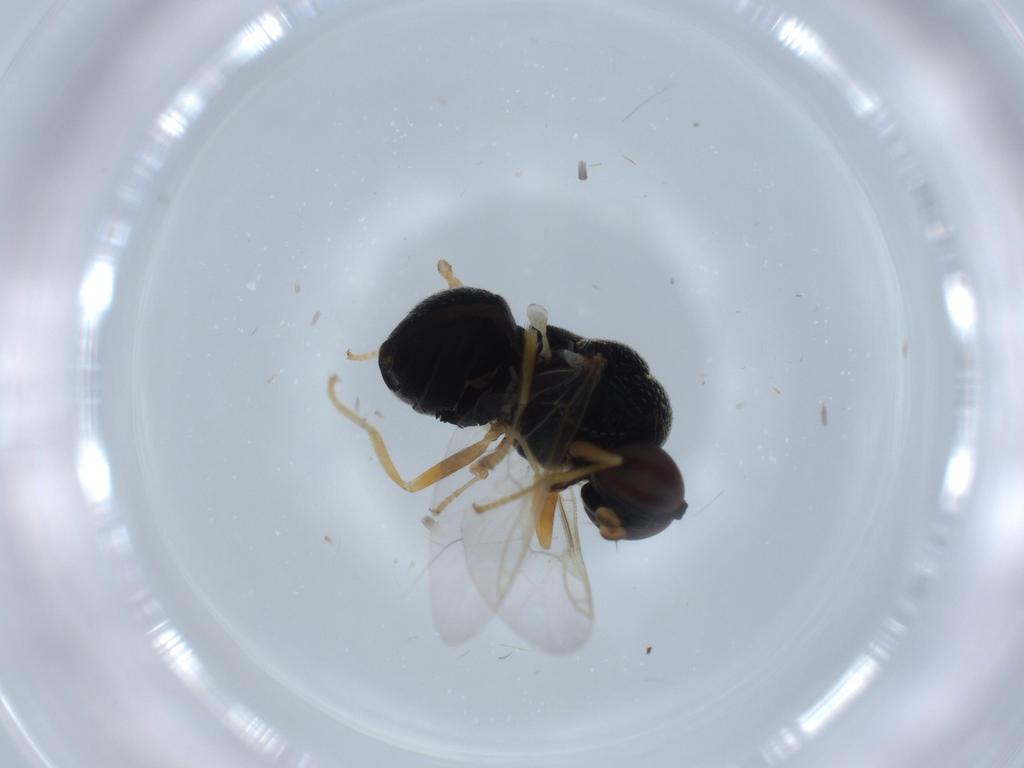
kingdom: Animalia
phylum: Arthropoda
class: Insecta
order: Diptera
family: Stratiomyidae
